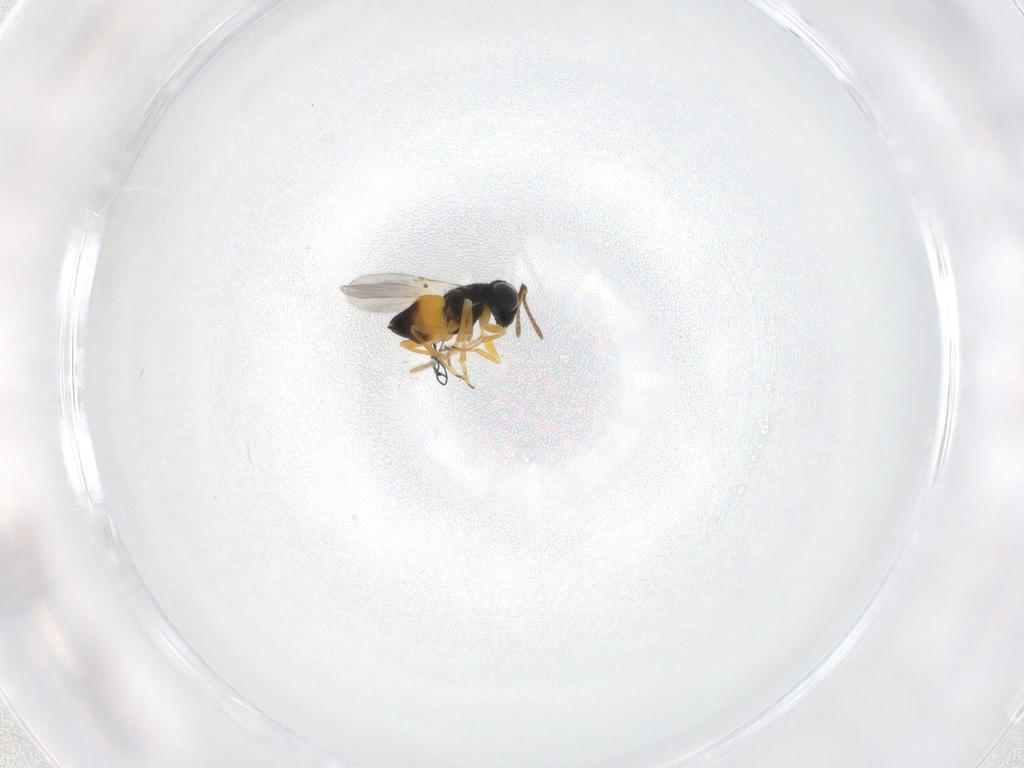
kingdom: Animalia
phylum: Arthropoda
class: Insecta
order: Hymenoptera
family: Encyrtidae
